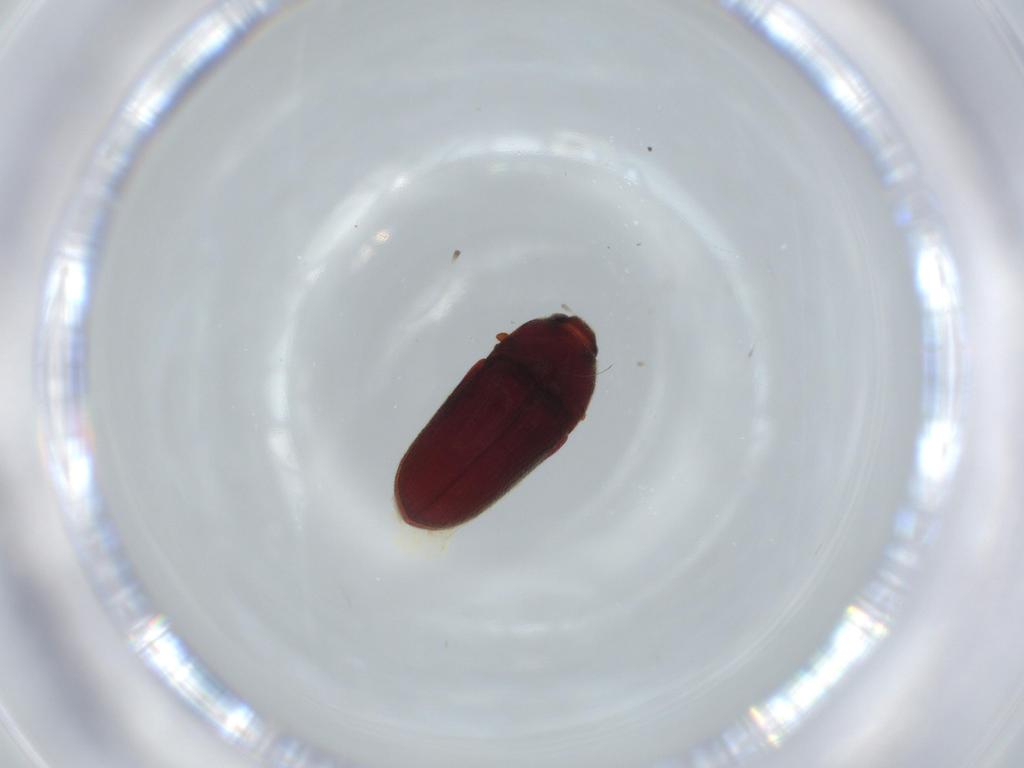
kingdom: Animalia
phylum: Arthropoda
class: Insecta
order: Coleoptera
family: Throscidae
